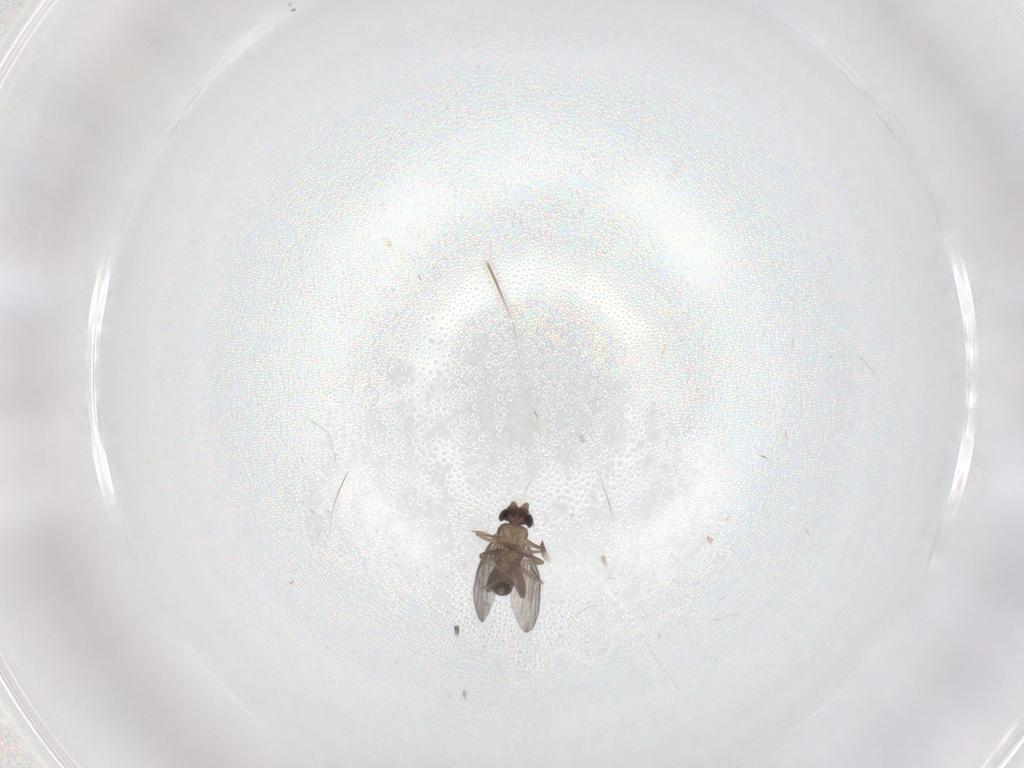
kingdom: Animalia
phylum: Arthropoda
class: Insecta
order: Diptera
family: Cecidomyiidae
